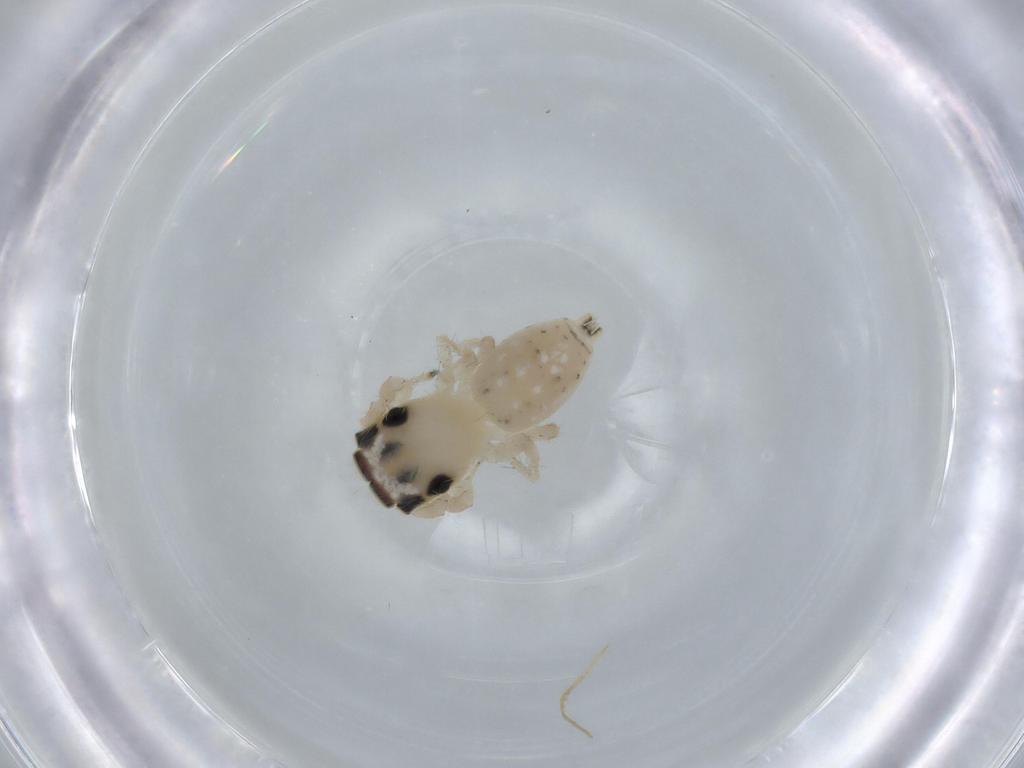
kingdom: Animalia
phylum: Arthropoda
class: Arachnida
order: Araneae
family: Salticidae
